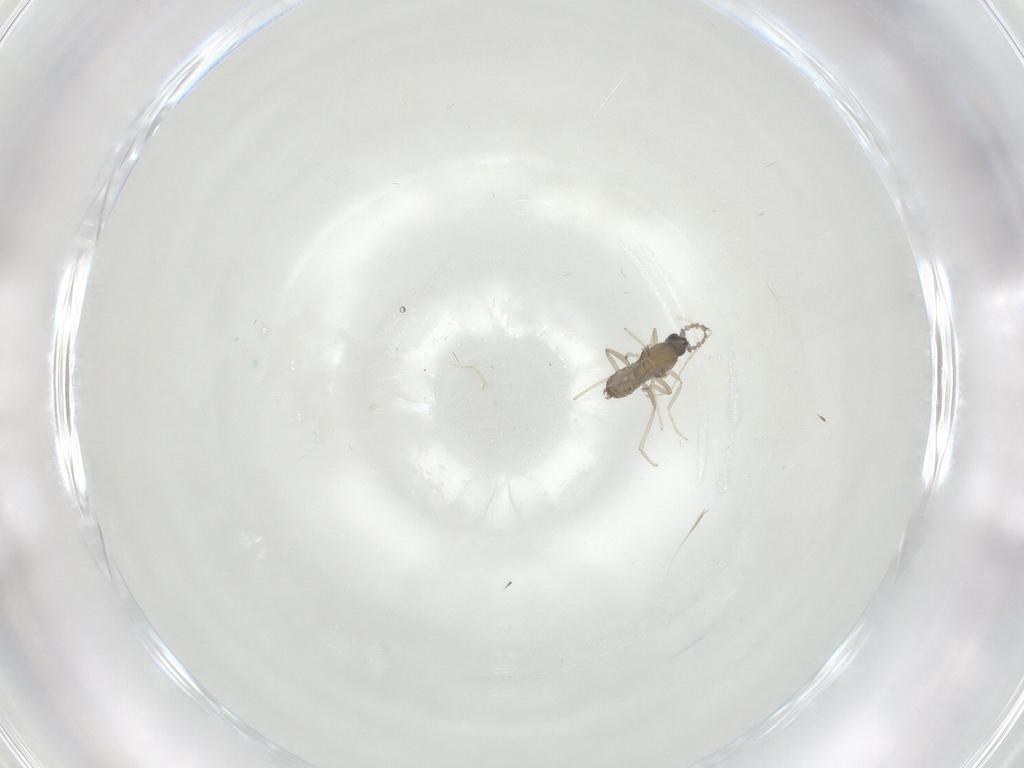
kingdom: Animalia
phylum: Arthropoda
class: Insecta
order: Diptera
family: Cecidomyiidae
